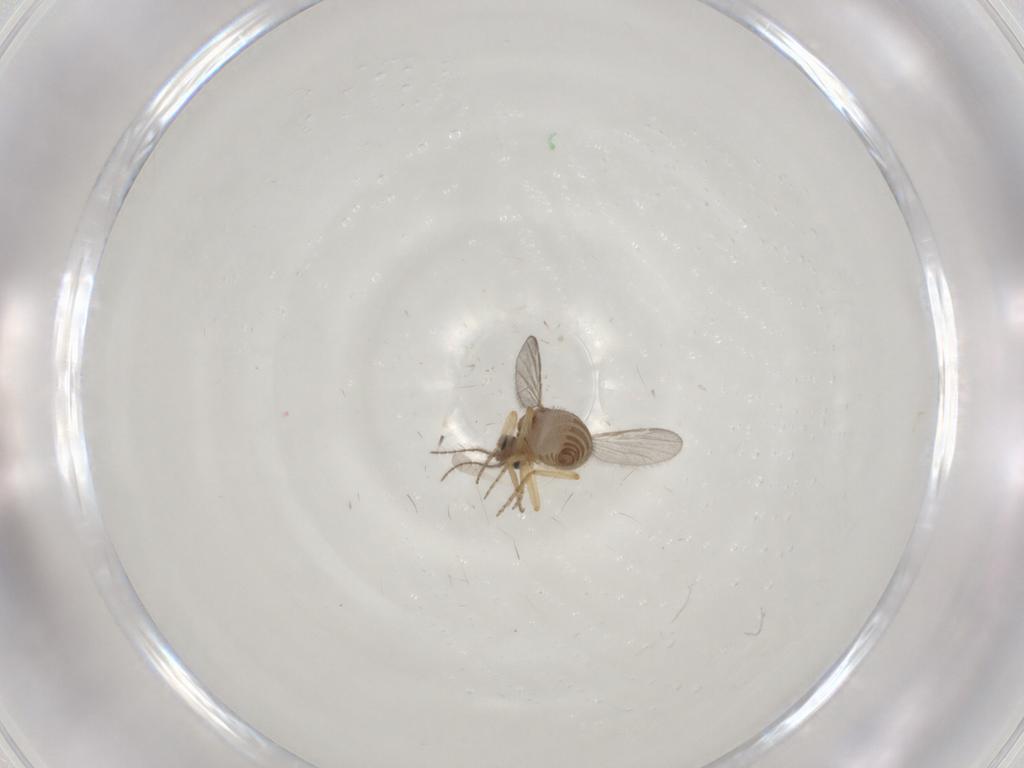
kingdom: Animalia
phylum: Arthropoda
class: Insecta
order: Diptera
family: Ceratopogonidae
